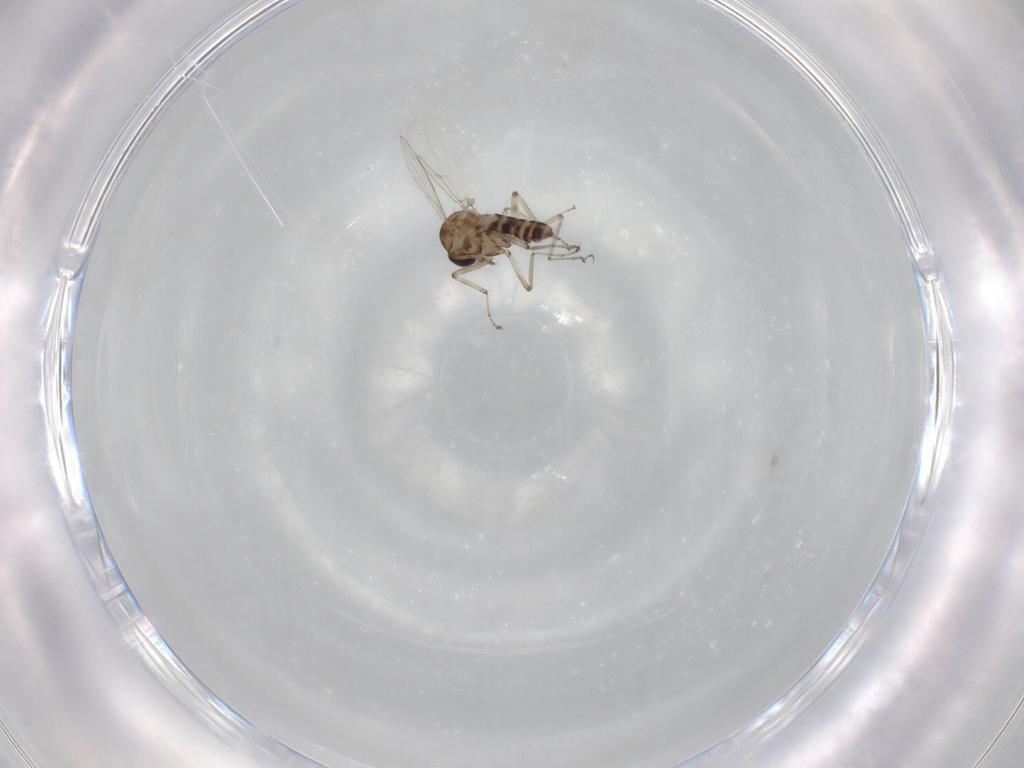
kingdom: Animalia
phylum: Arthropoda
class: Insecta
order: Diptera
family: Ceratopogonidae
